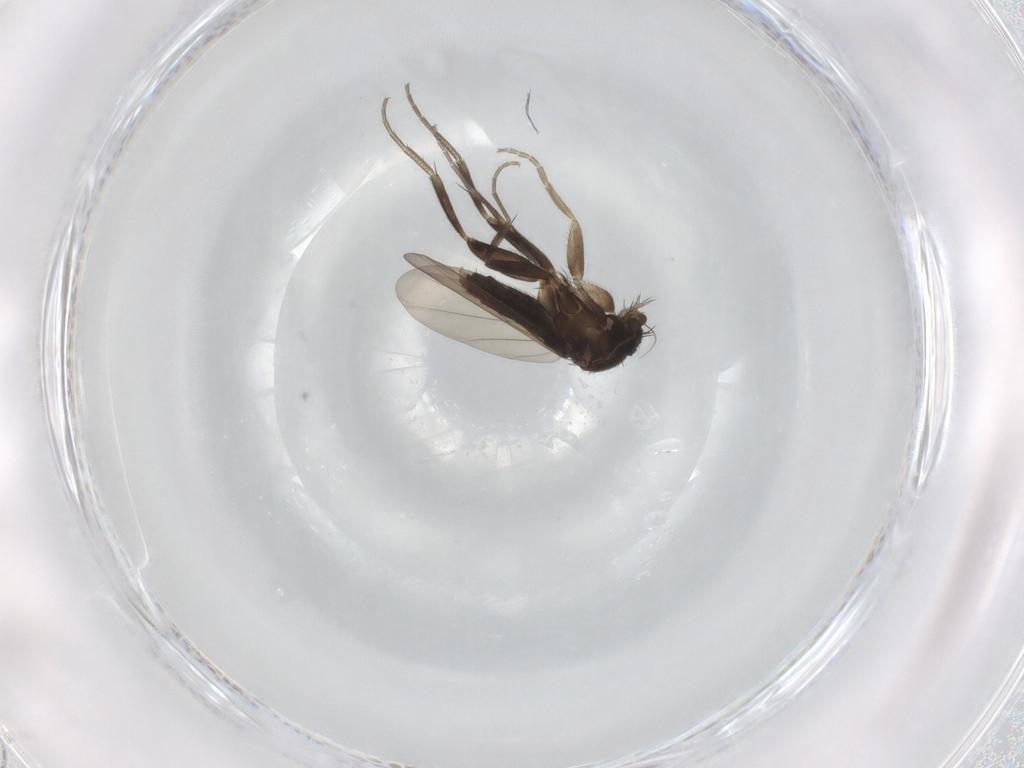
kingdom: Animalia
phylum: Arthropoda
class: Insecta
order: Diptera
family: Phoridae
